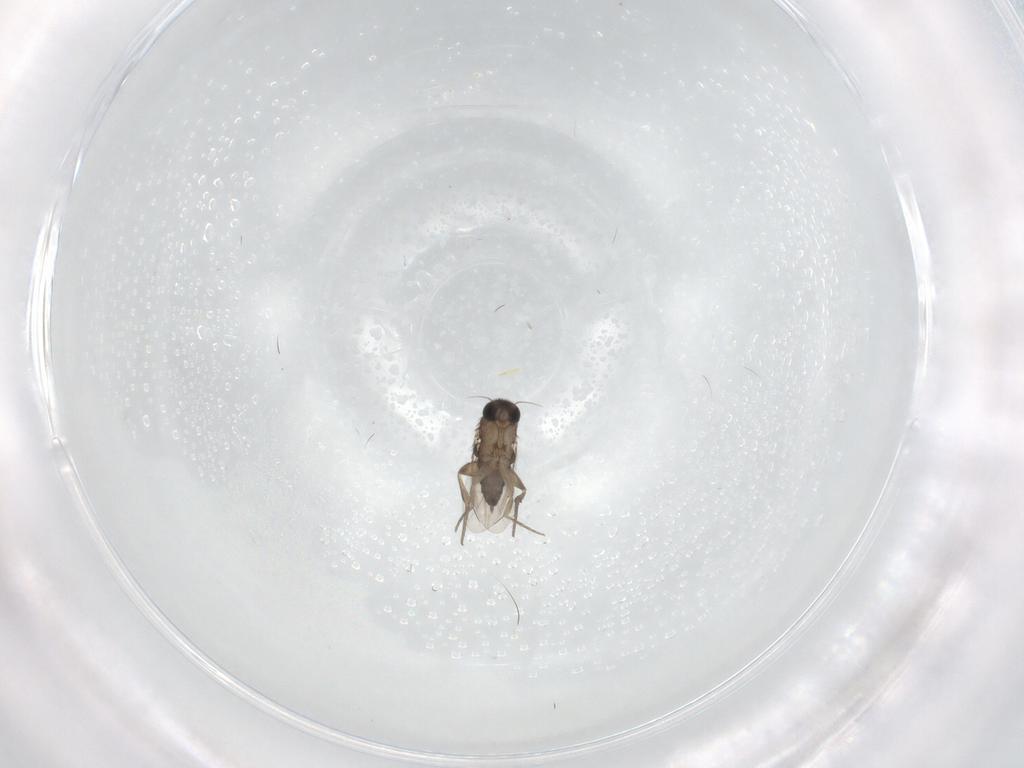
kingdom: Animalia
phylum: Arthropoda
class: Insecta
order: Diptera
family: Phoridae
